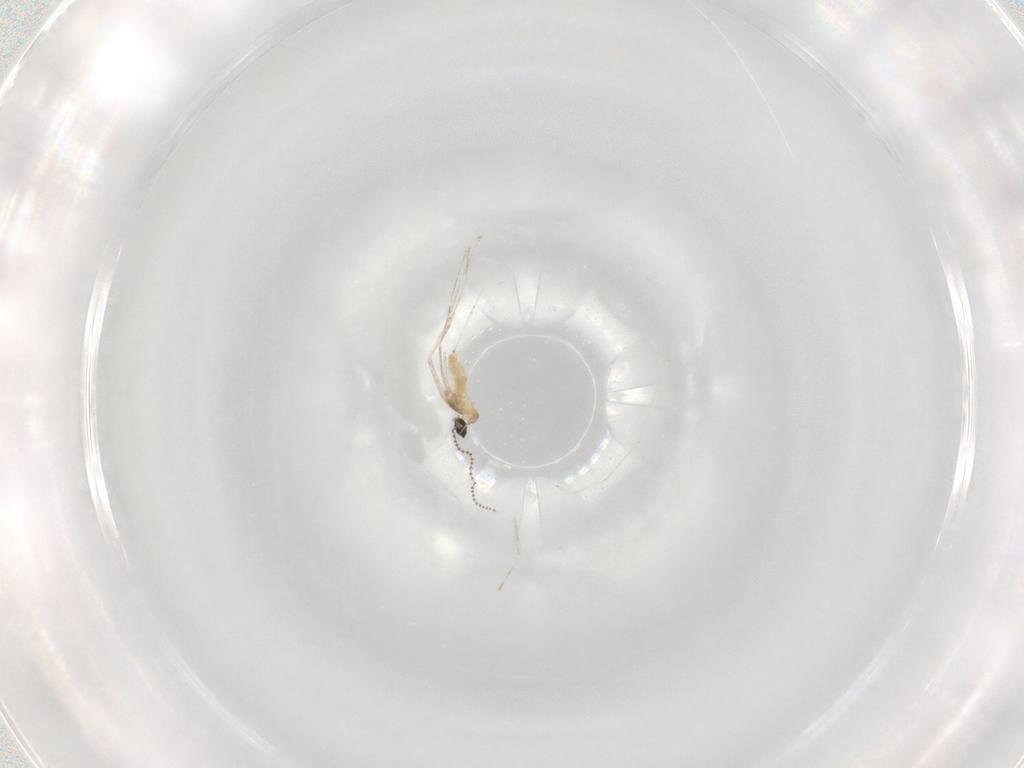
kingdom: Animalia
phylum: Arthropoda
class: Insecta
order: Diptera
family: Cecidomyiidae
